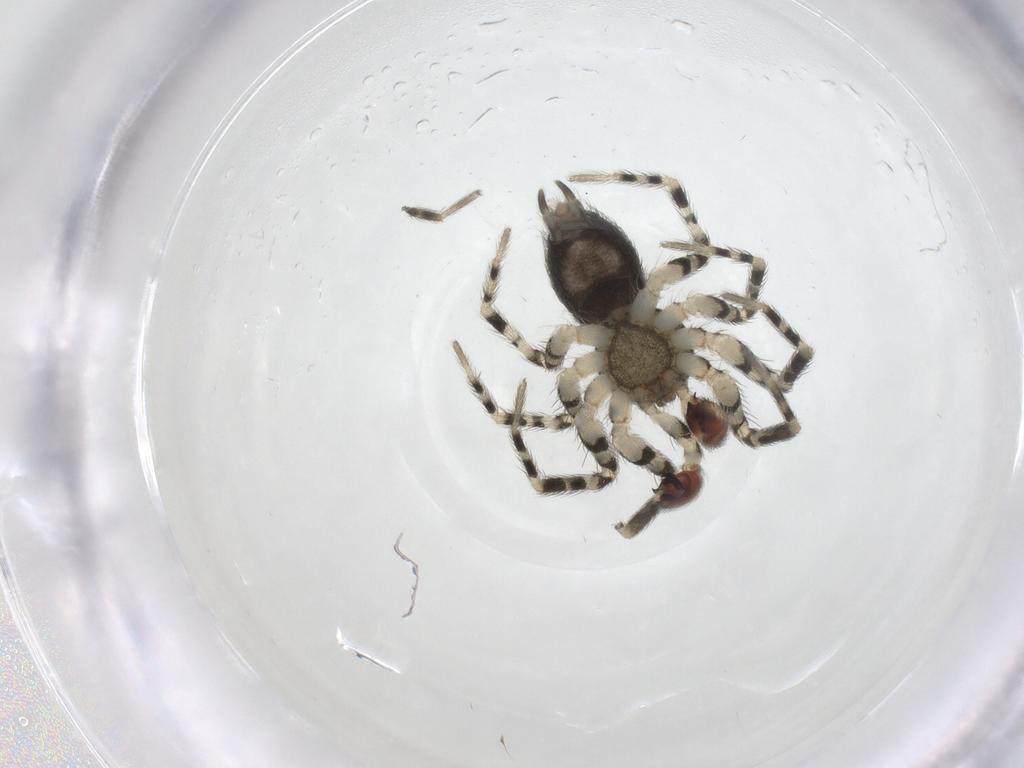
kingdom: Animalia
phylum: Arthropoda
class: Arachnida
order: Araneae
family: Oecobiidae
